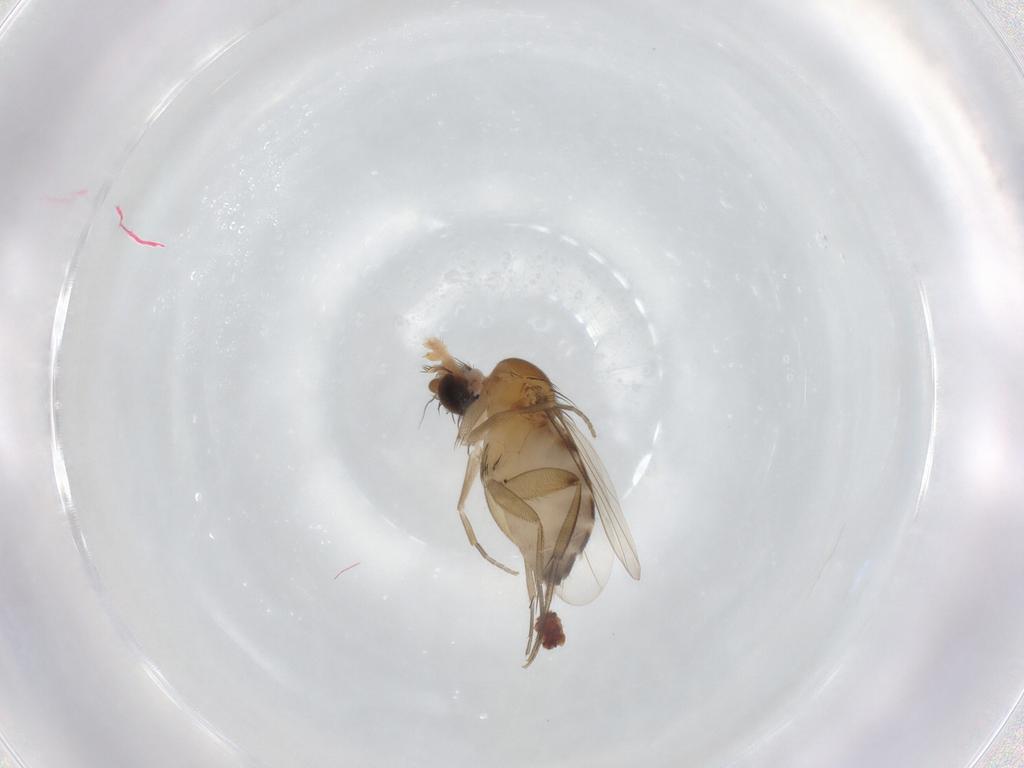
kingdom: Animalia
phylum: Arthropoda
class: Insecta
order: Diptera
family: Phoridae
